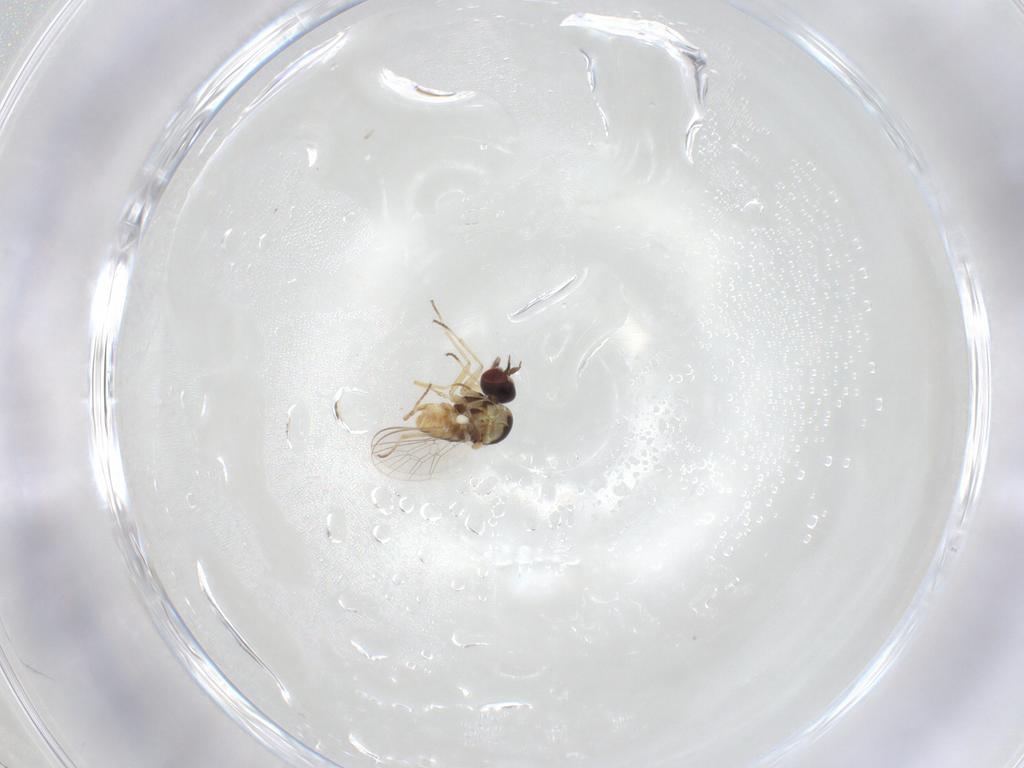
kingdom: Animalia
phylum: Arthropoda
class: Insecta
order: Diptera
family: Bombyliidae
